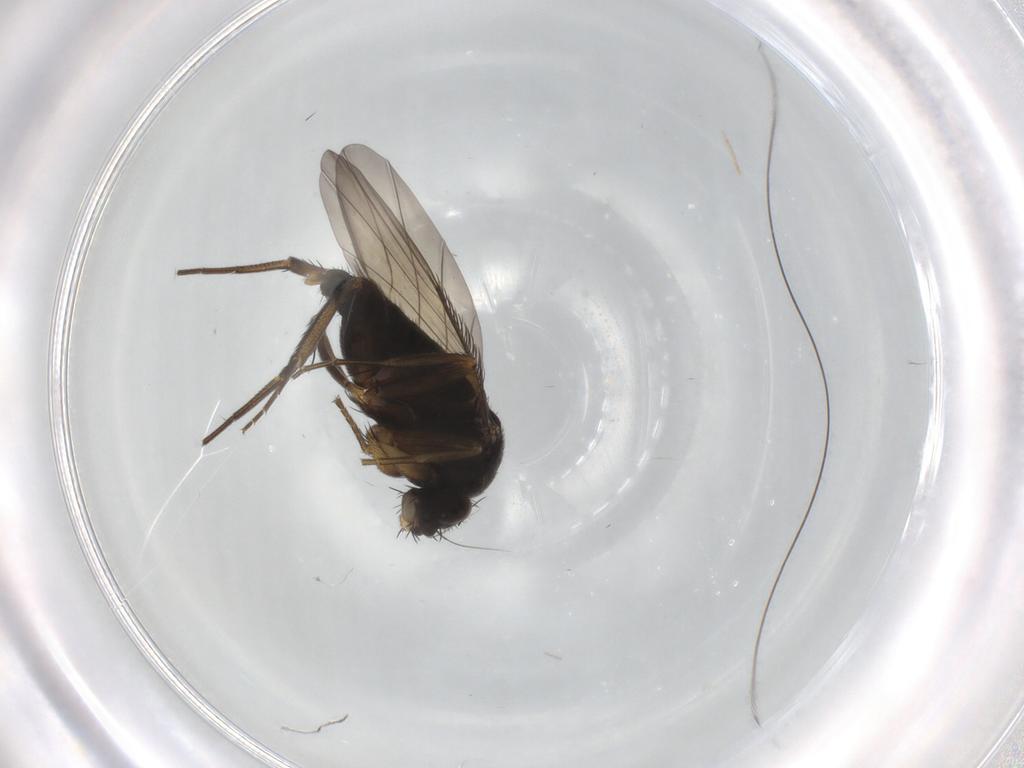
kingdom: Animalia
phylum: Arthropoda
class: Insecta
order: Diptera
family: Phoridae
